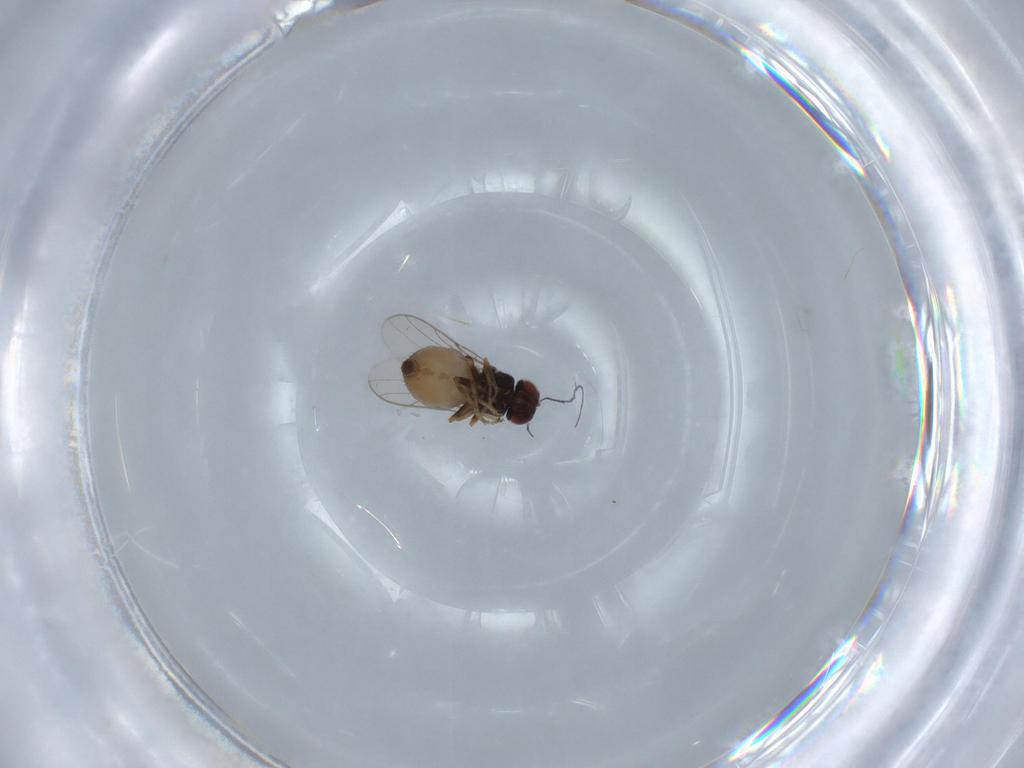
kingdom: Animalia
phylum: Arthropoda
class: Insecta
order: Diptera
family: Chloropidae
